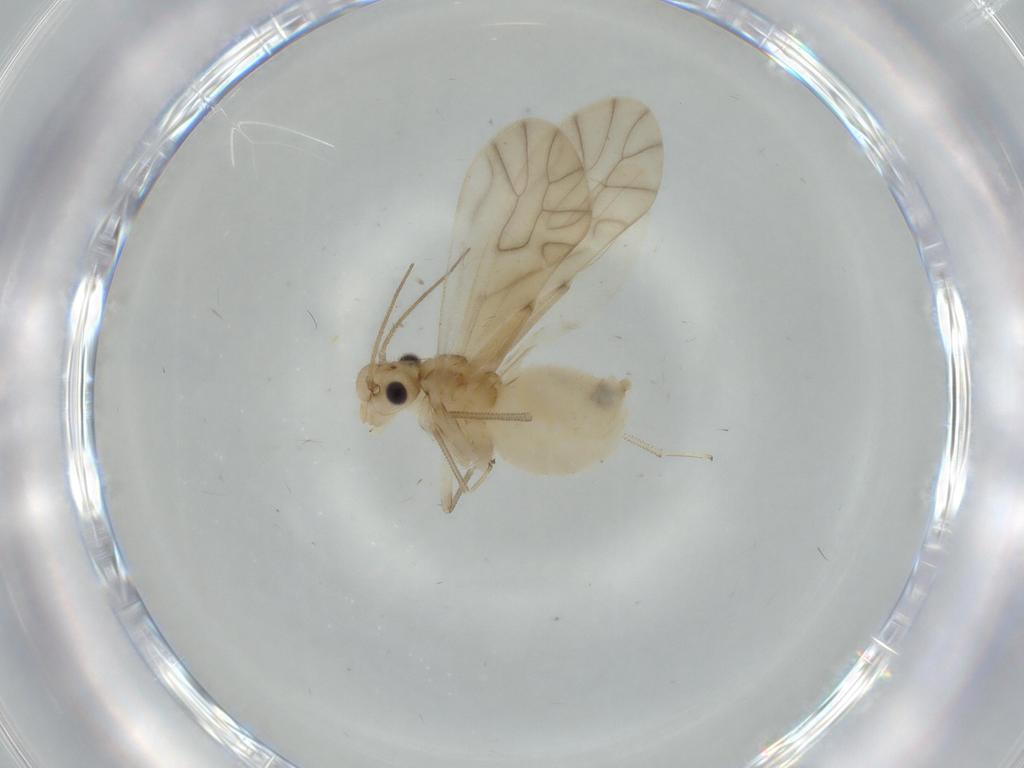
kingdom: Animalia
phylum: Arthropoda
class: Insecta
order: Psocodea
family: Caeciliusidae
